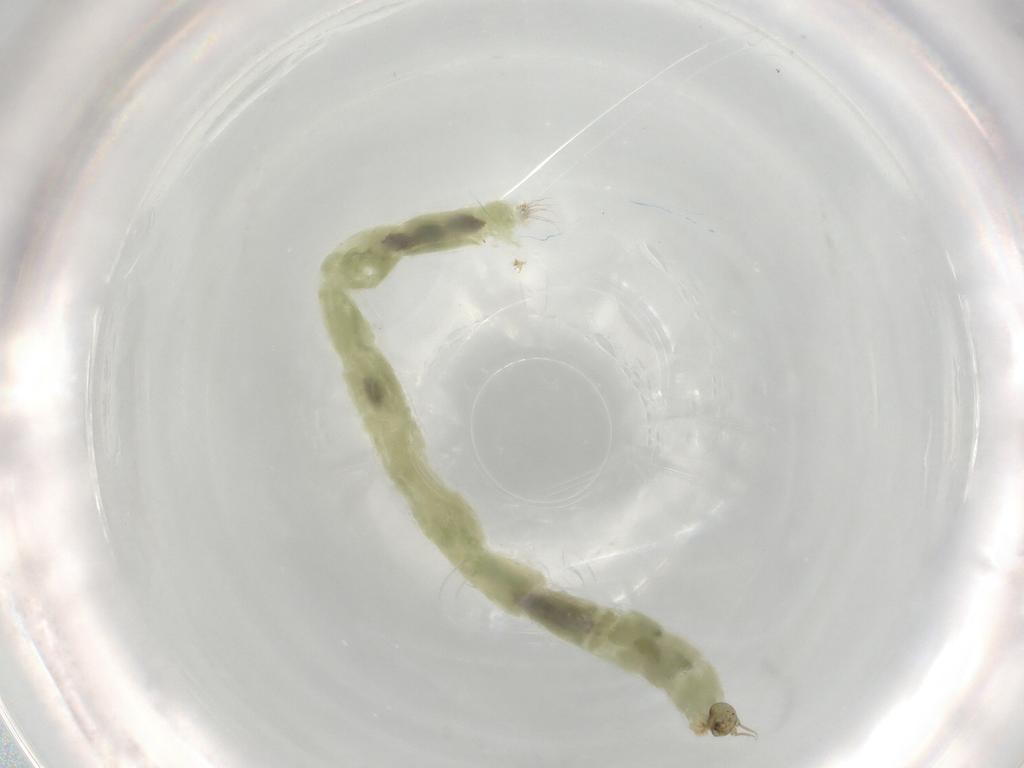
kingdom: Animalia
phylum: Arthropoda
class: Insecta
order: Diptera
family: Chironomidae
